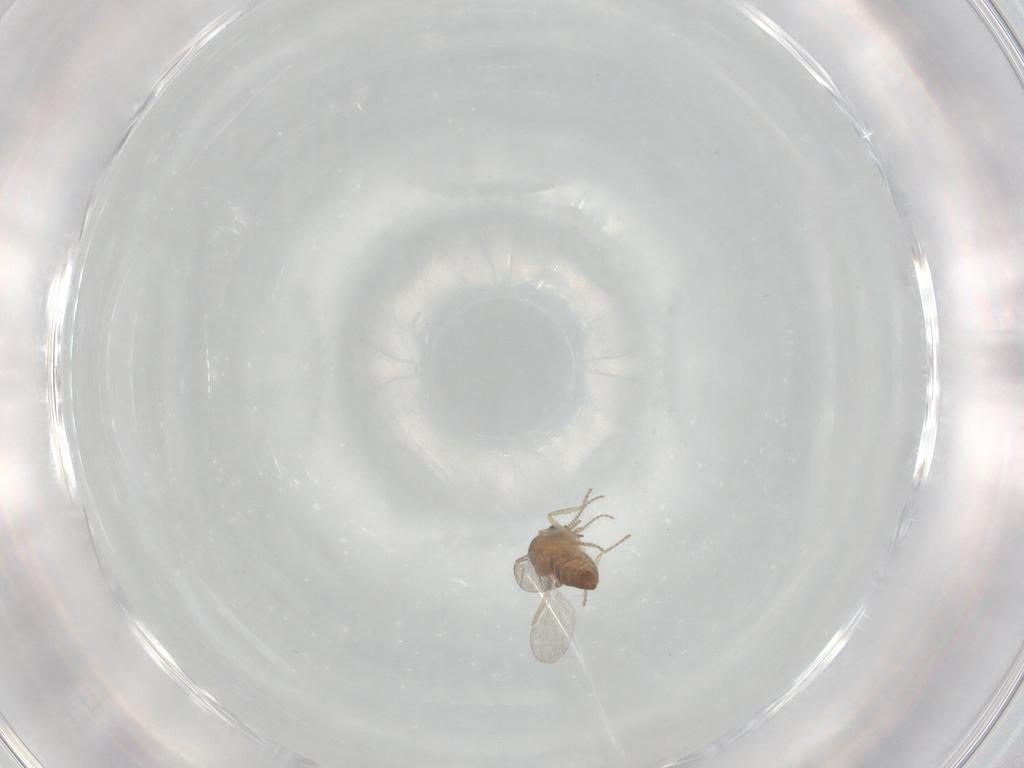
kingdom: Animalia
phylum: Arthropoda
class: Insecta
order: Diptera
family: Ceratopogonidae
